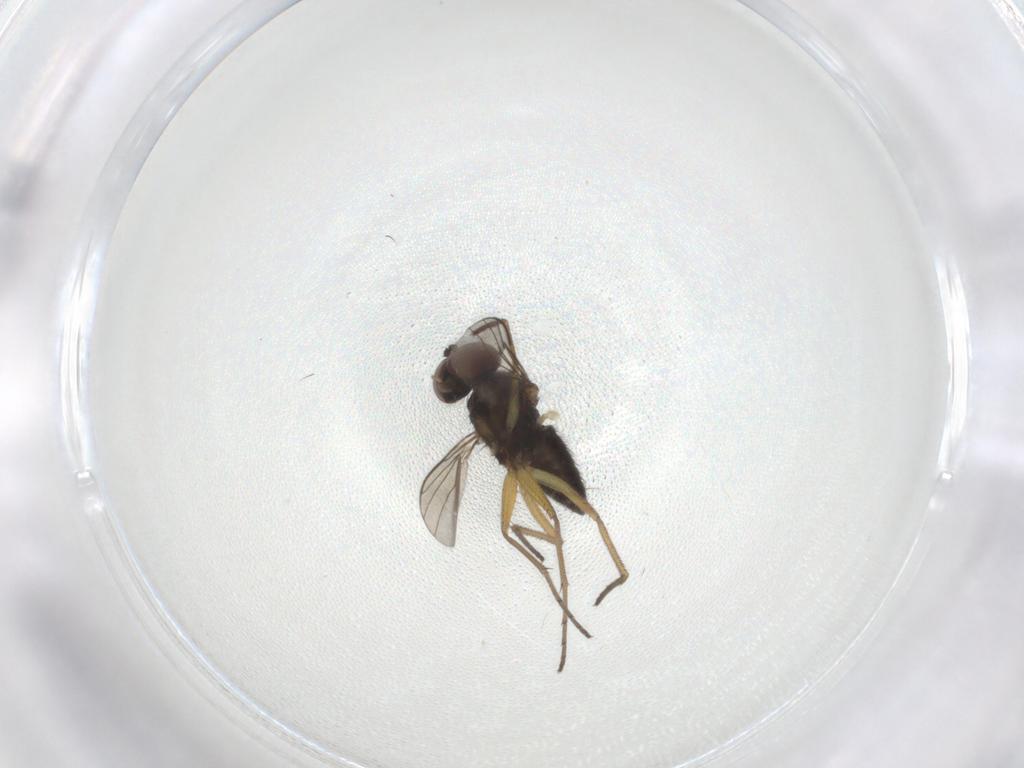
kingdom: Animalia
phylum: Arthropoda
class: Insecta
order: Diptera
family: Dolichopodidae
